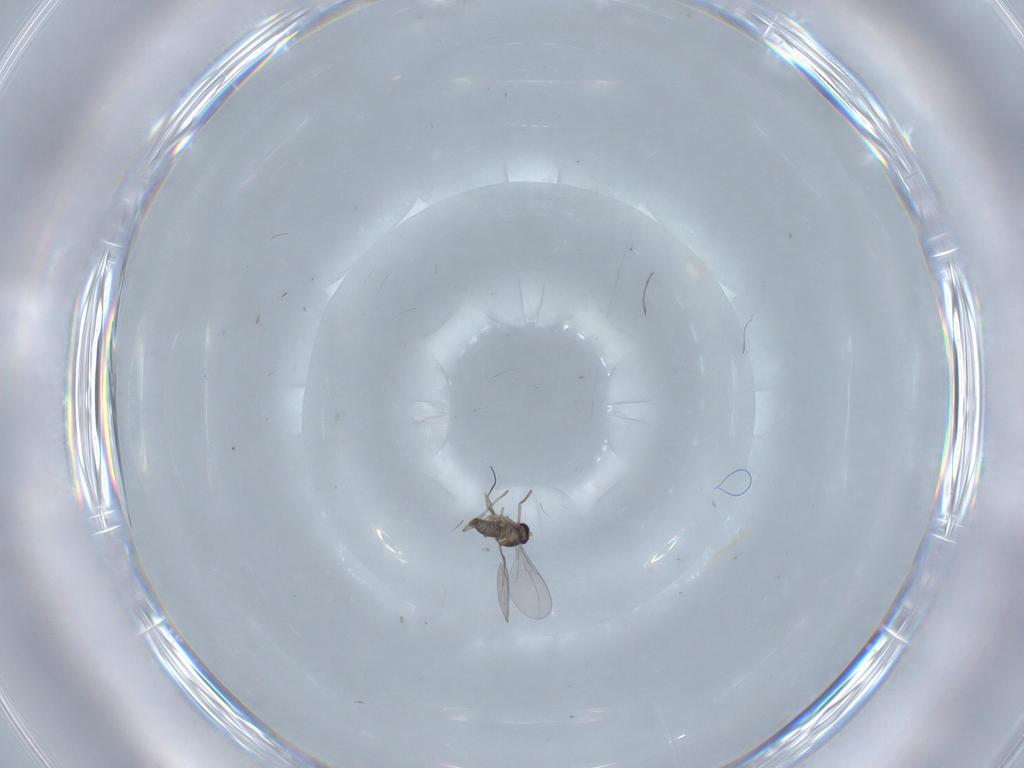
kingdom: Animalia
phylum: Arthropoda
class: Insecta
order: Diptera
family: Cecidomyiidae
